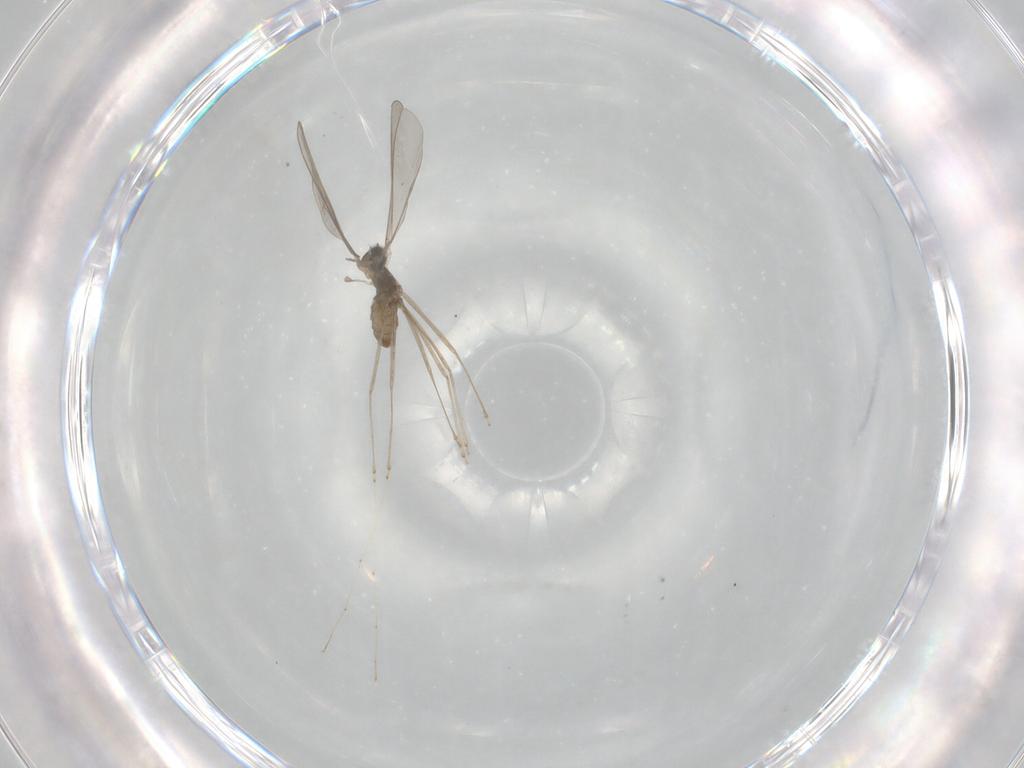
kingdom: Animalia
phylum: Arthropoda
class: Insecta
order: Diptera
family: Cecidomyiidae
